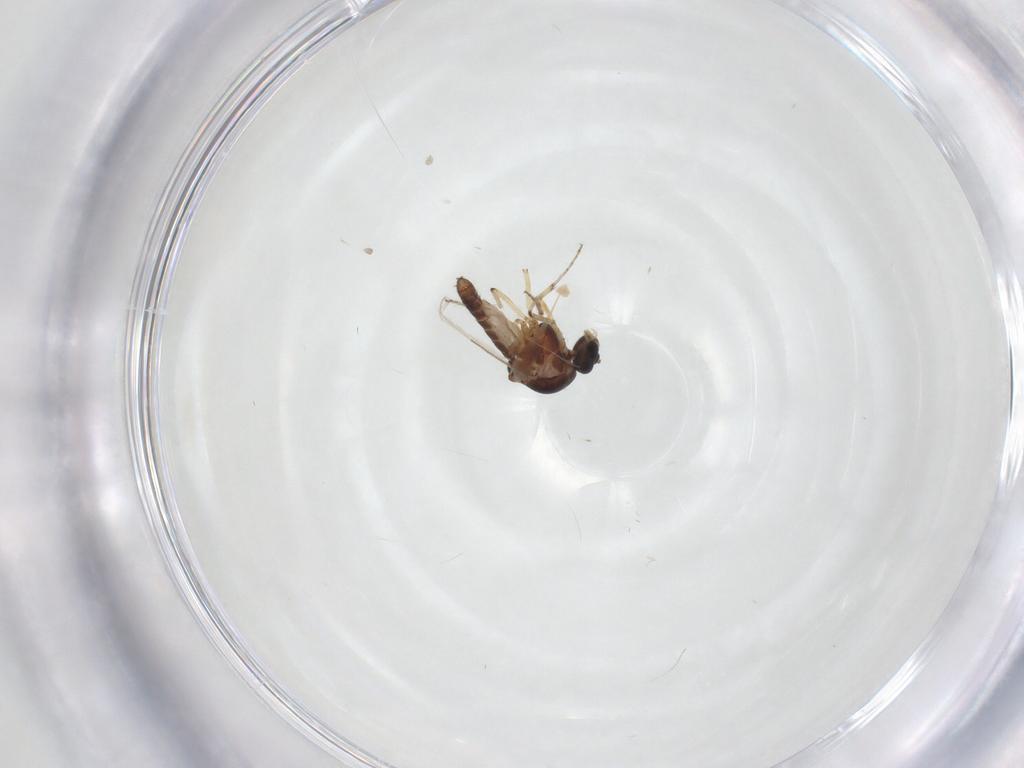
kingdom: Animalia
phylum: Arthropoda
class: Insecta
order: Diptera
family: Ceratopogonidae
